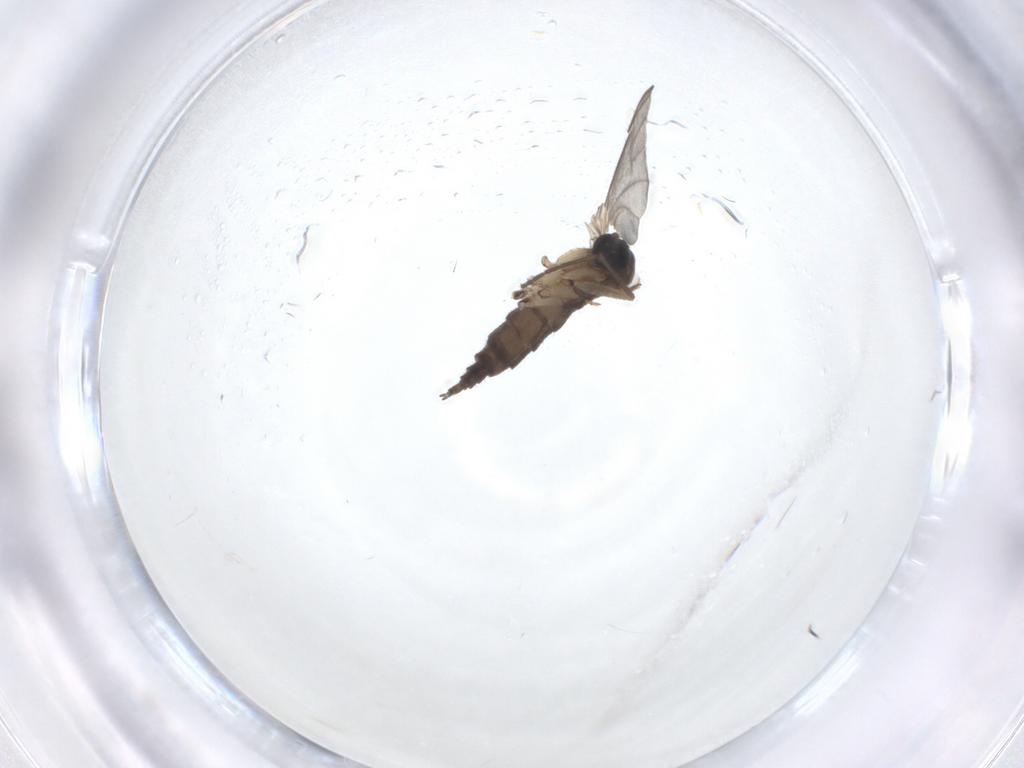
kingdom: Animalia
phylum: Arthropoda
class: Insecta
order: Diptera
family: Sciaridae
